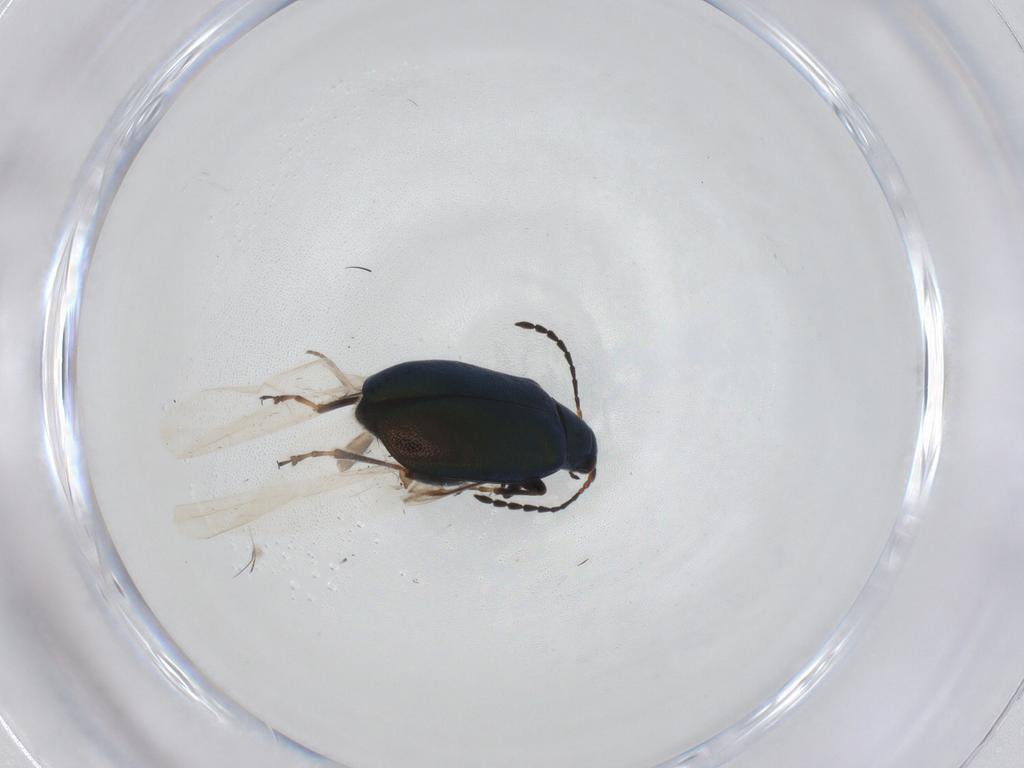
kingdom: Animalia
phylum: Arthropoda
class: Insecta
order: Coleoptera
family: Chrysomelidae
